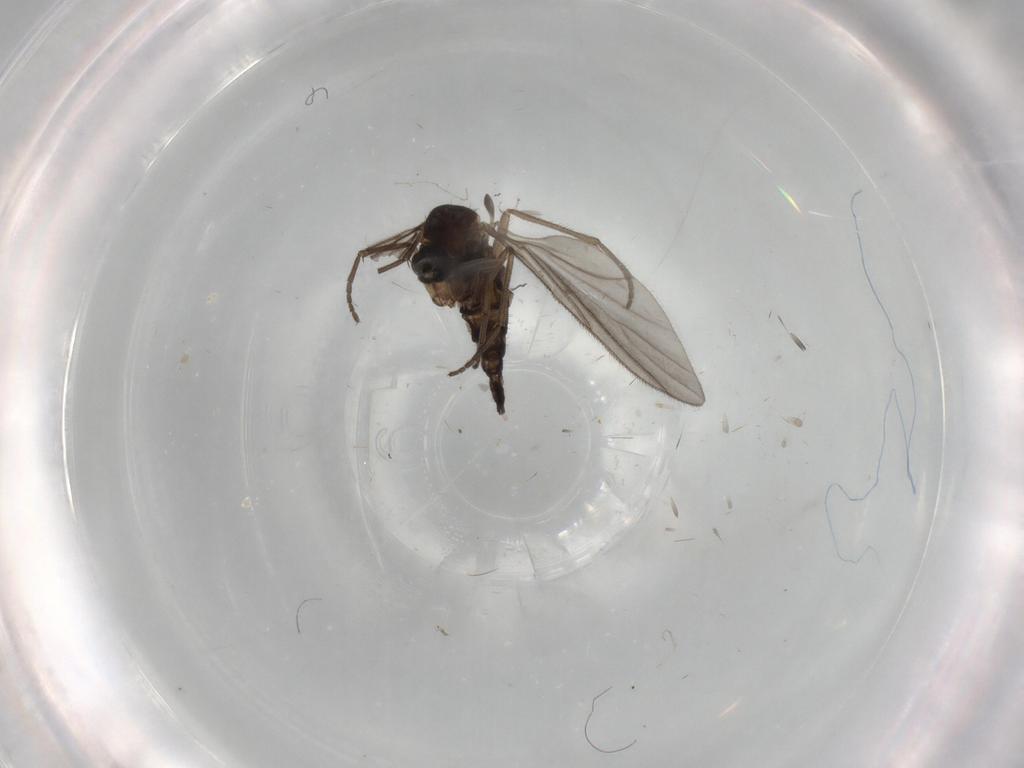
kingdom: Animalia
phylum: Arthropoda
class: Insecta
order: Diptera
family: Sciaridae
